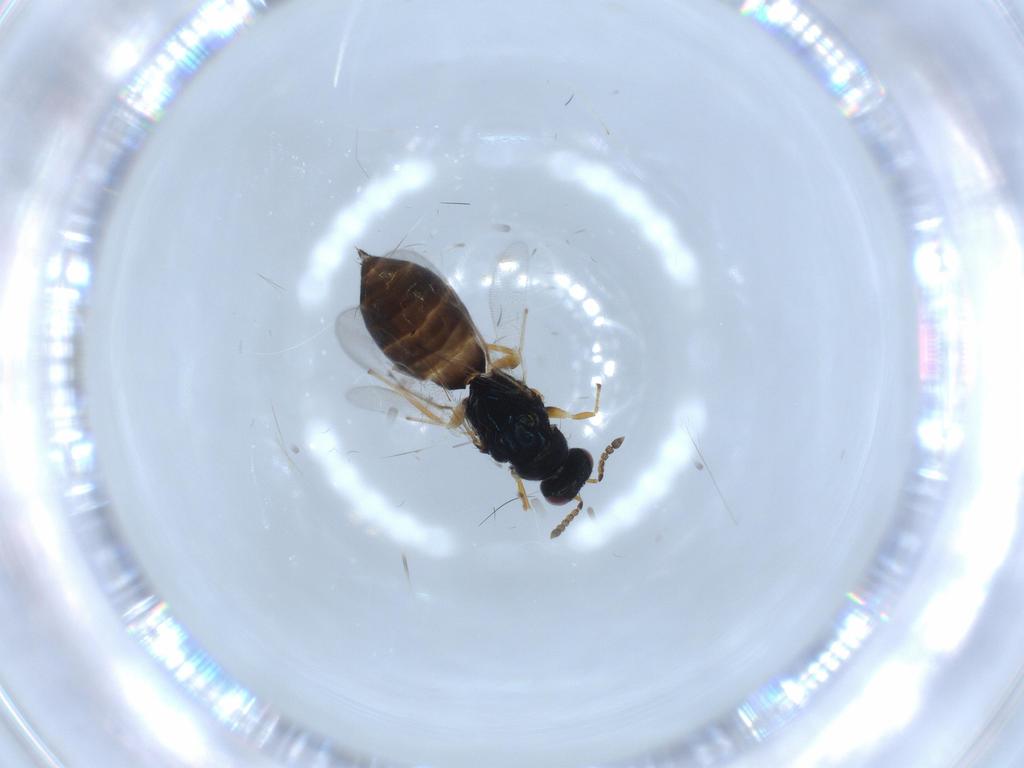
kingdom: Animalia
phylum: Arthropoda
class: Insecta
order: Hymenoptera
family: Eulophidae
